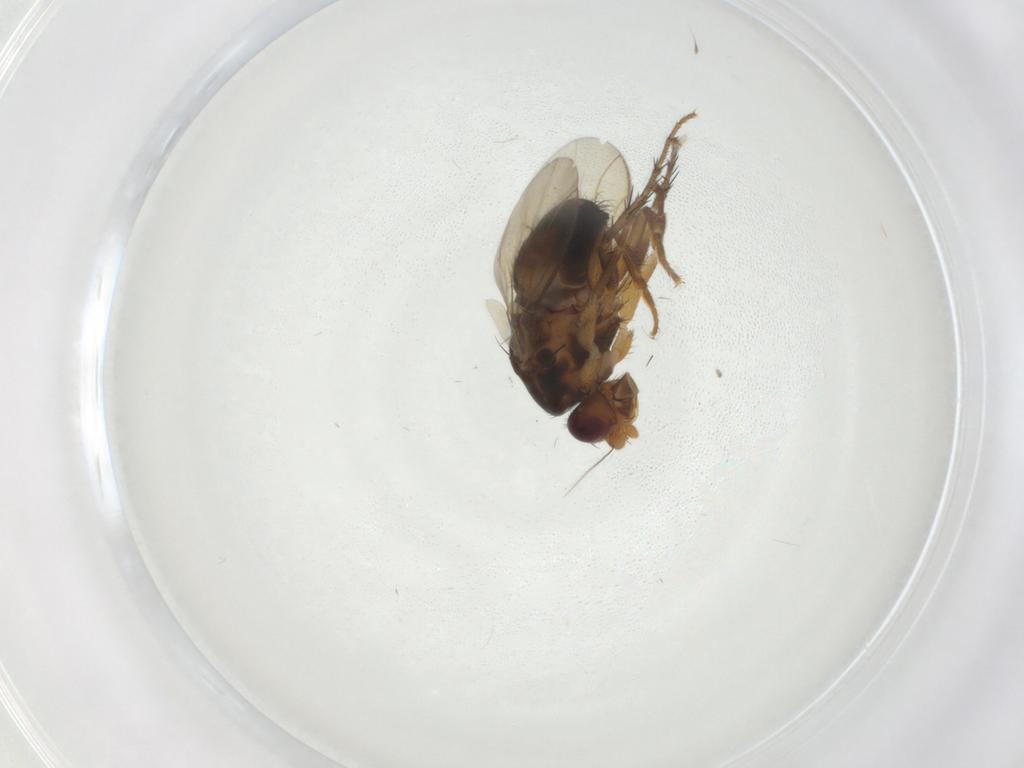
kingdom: Animalia
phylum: Arthropoda
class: Insecta
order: Diptera
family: Sphaeroceridae
